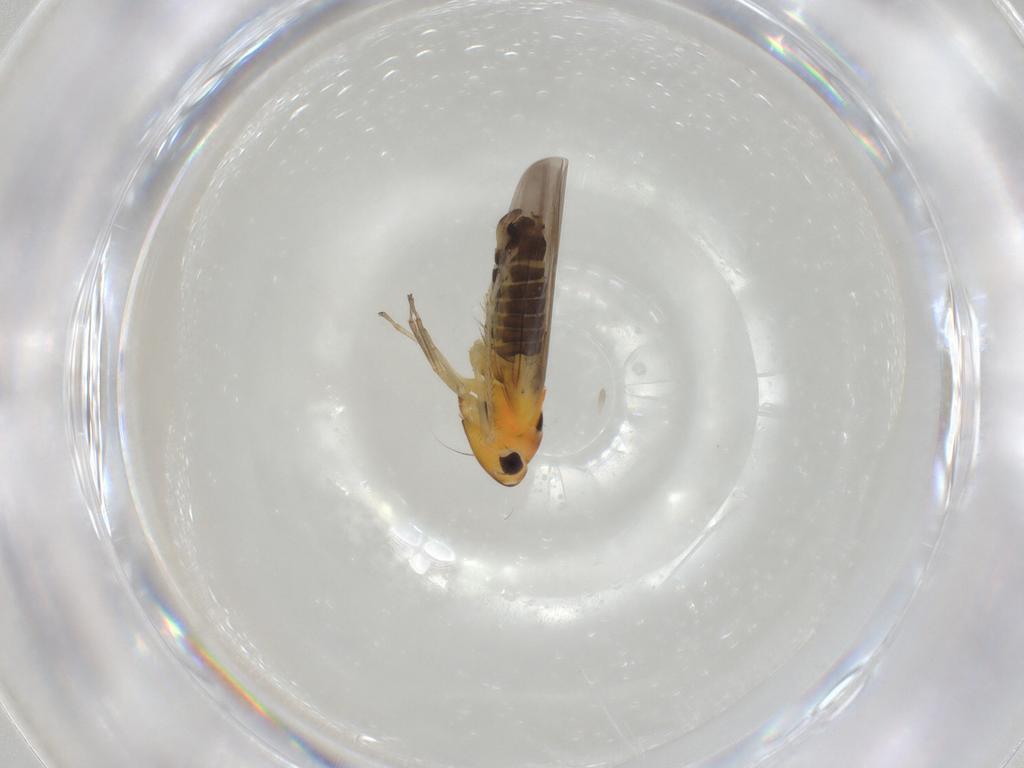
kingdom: Animalia
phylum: Arthropoda
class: Insecta
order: Hemiptera
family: Cicadellidae
